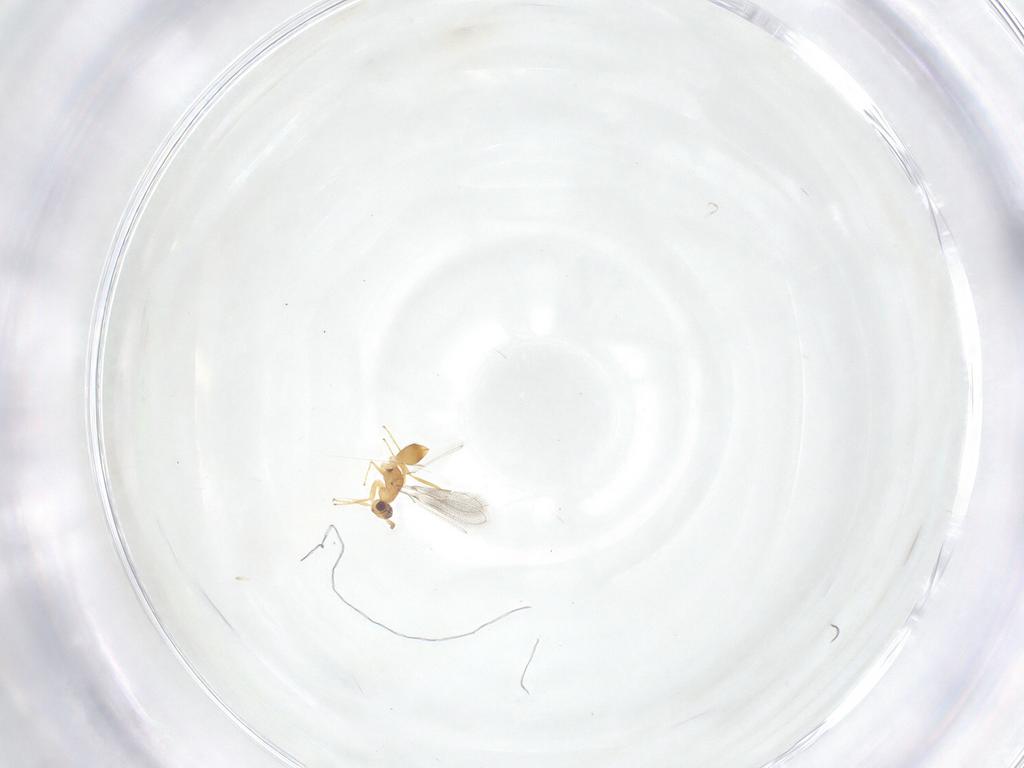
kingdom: Animalia
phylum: Arthropoda
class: Insecta
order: Hymenoptera
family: Mymaridae
